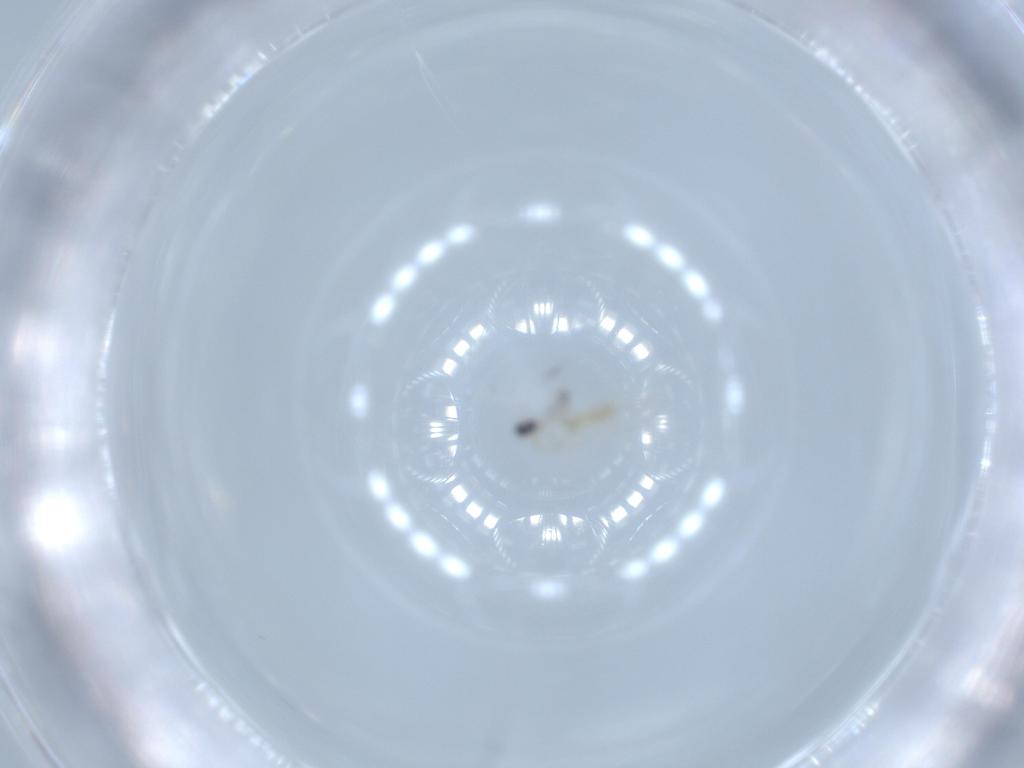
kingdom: Animalia
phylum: Arthropoda
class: Insecta
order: Diptera
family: Cecidomyiidae
